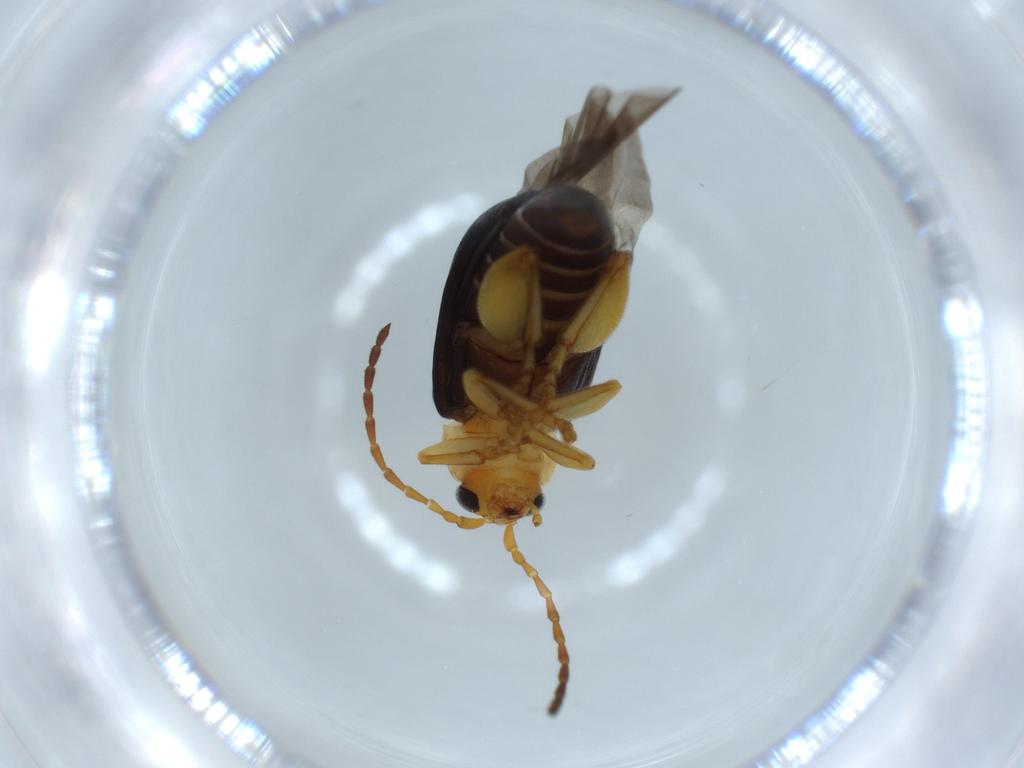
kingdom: Animalia
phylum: Arthropoda
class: Insecta
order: Coleoptera
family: Chrysomelidae
